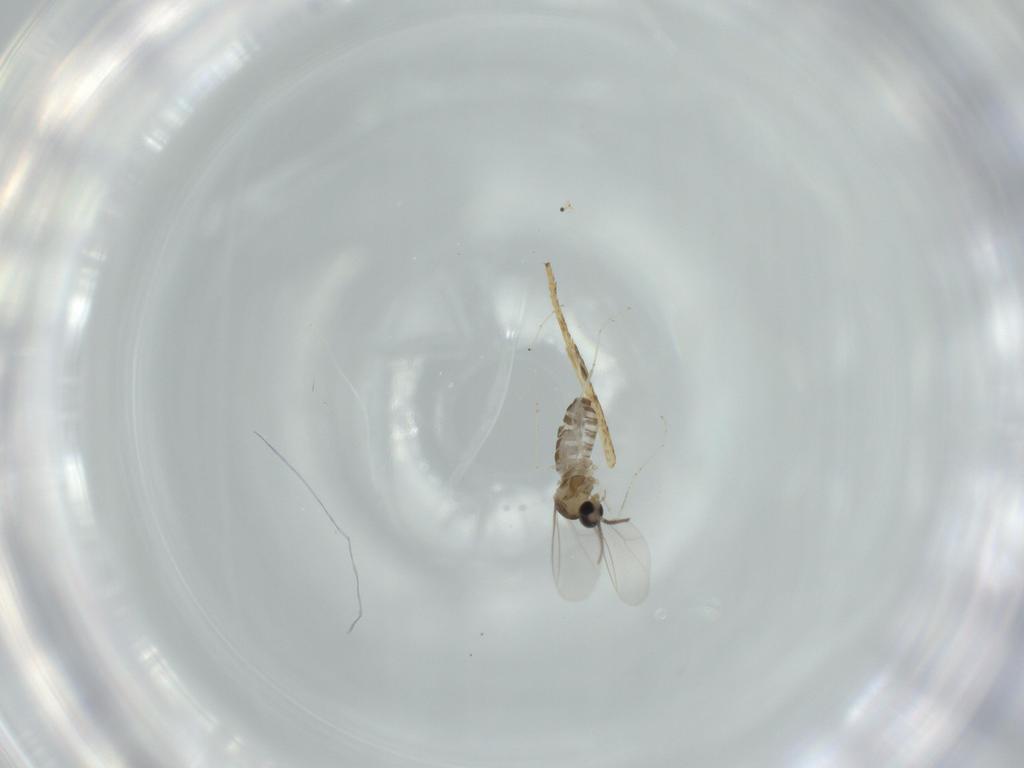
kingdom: Animalia
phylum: Arthropoda
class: Insecta
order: Diptera
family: Cecidomyiidae
